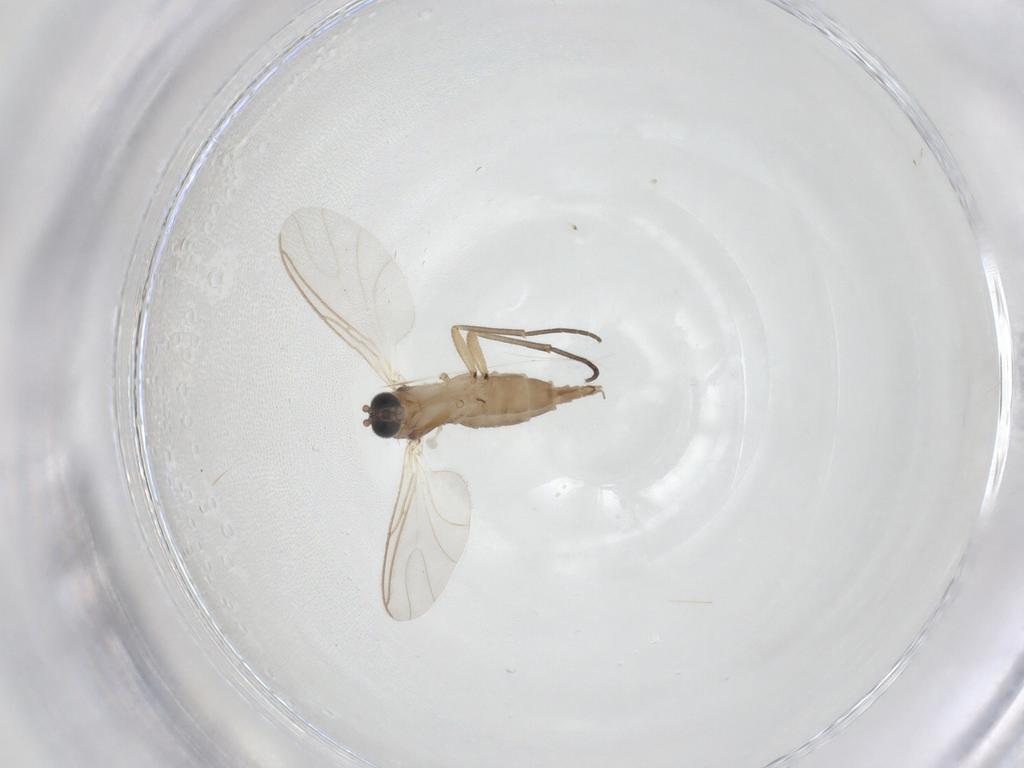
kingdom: Animalia
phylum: Arthropoda
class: Insecta
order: Diptera
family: Sciaridae
